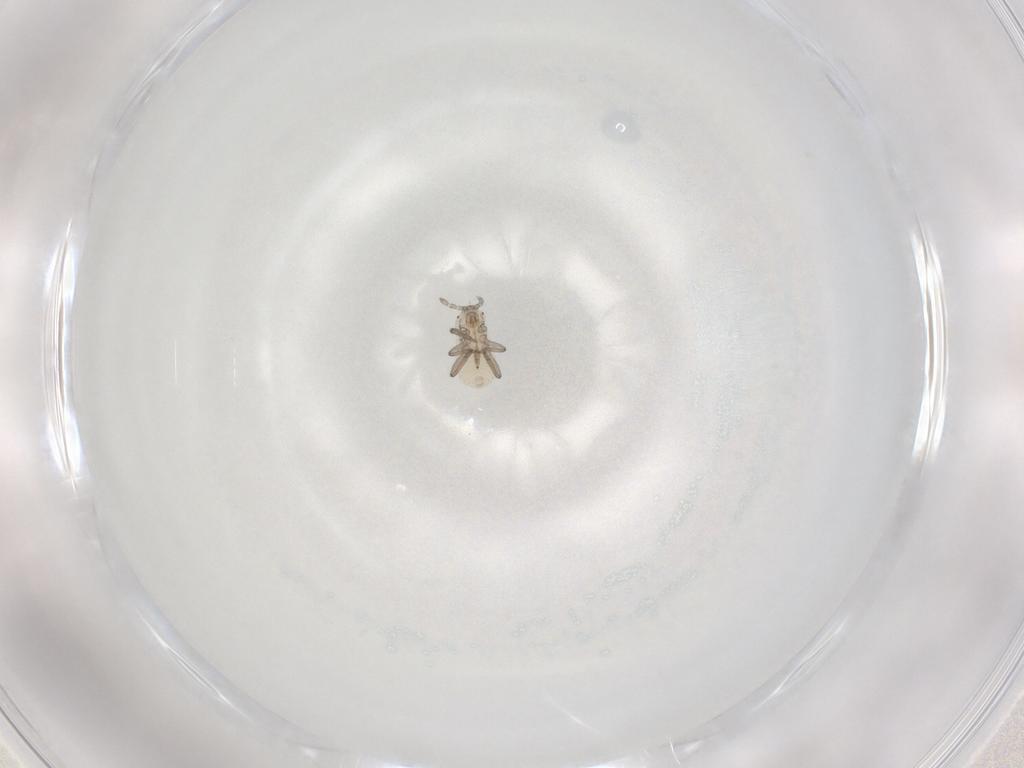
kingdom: Animalia
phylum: Arthropoda
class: Insecta
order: Hemiptera
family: Aphididae
